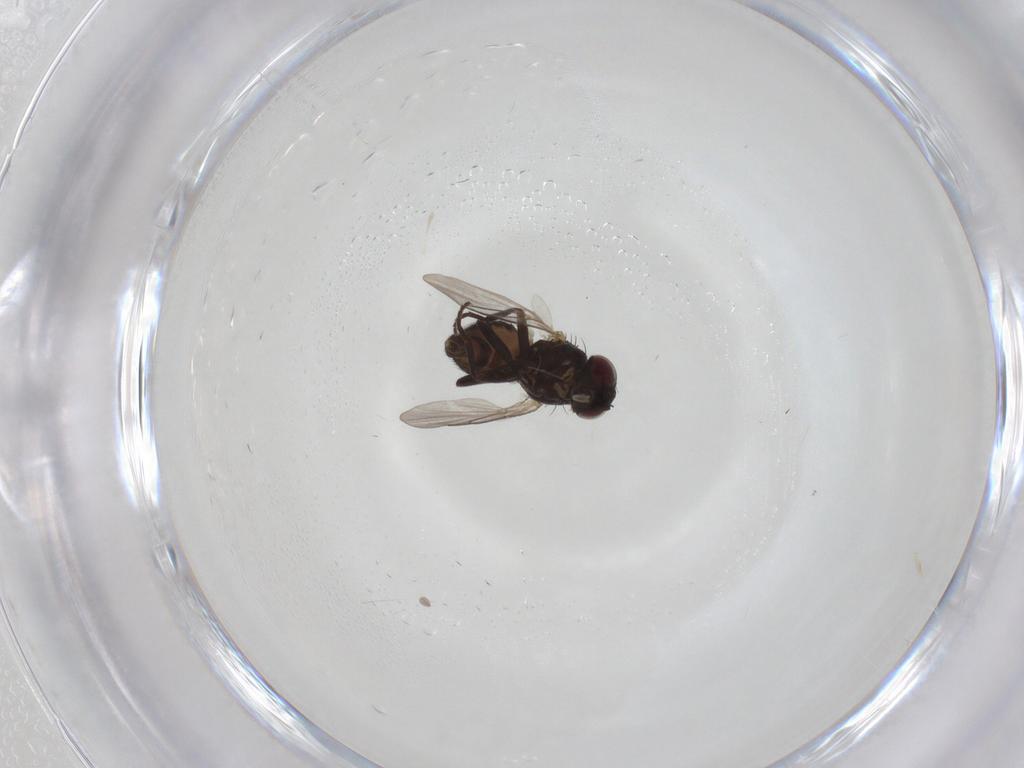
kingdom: Animalia
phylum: Arthropoda
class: Insecta
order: Diptera
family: Agromyzidae
